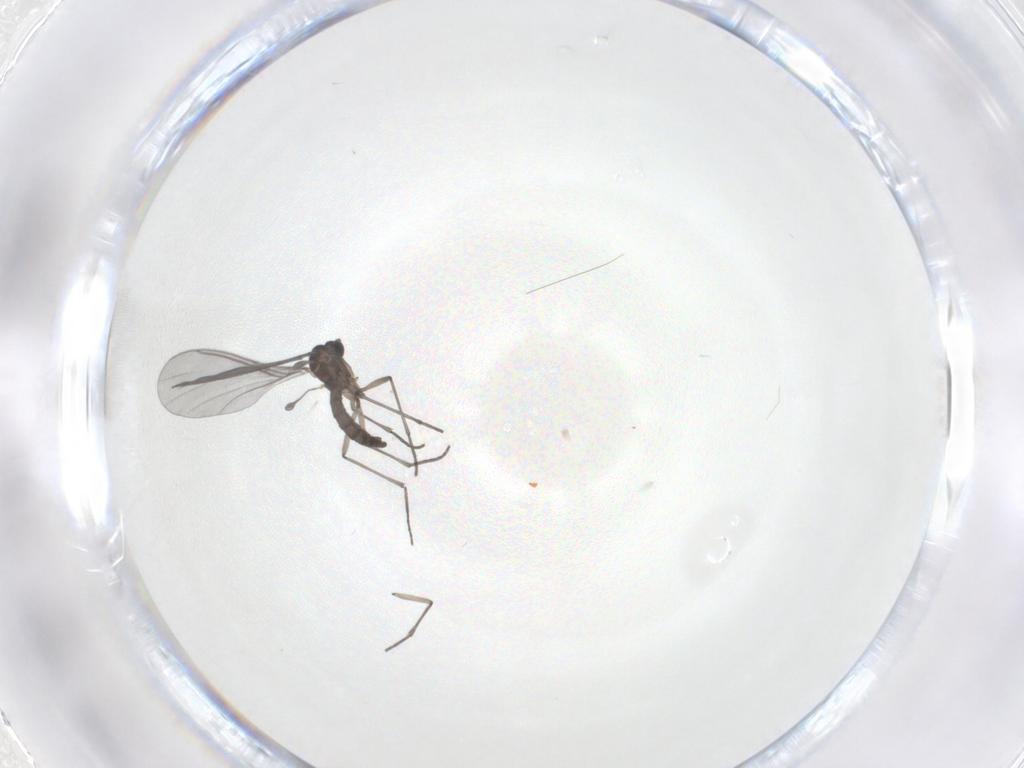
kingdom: Animalia
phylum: Arthropoda
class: Insecta
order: Diptera
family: Sciaridae
